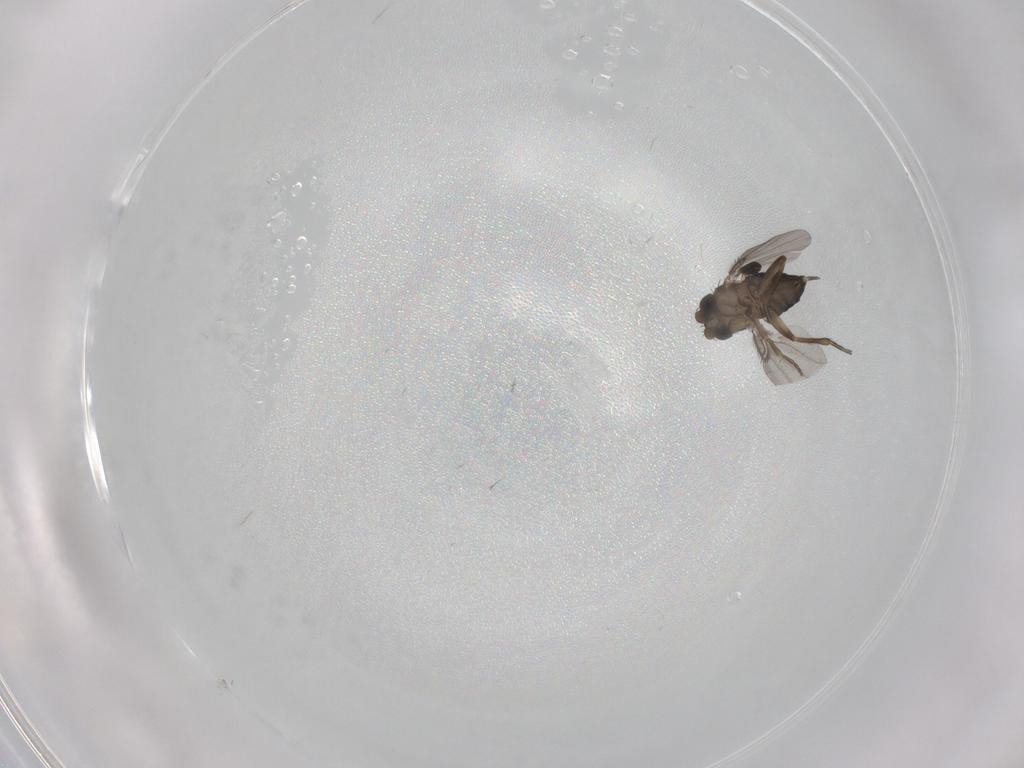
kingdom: Animalia
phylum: Arthropoda
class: Insecta
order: Diptera
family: Phoridae
